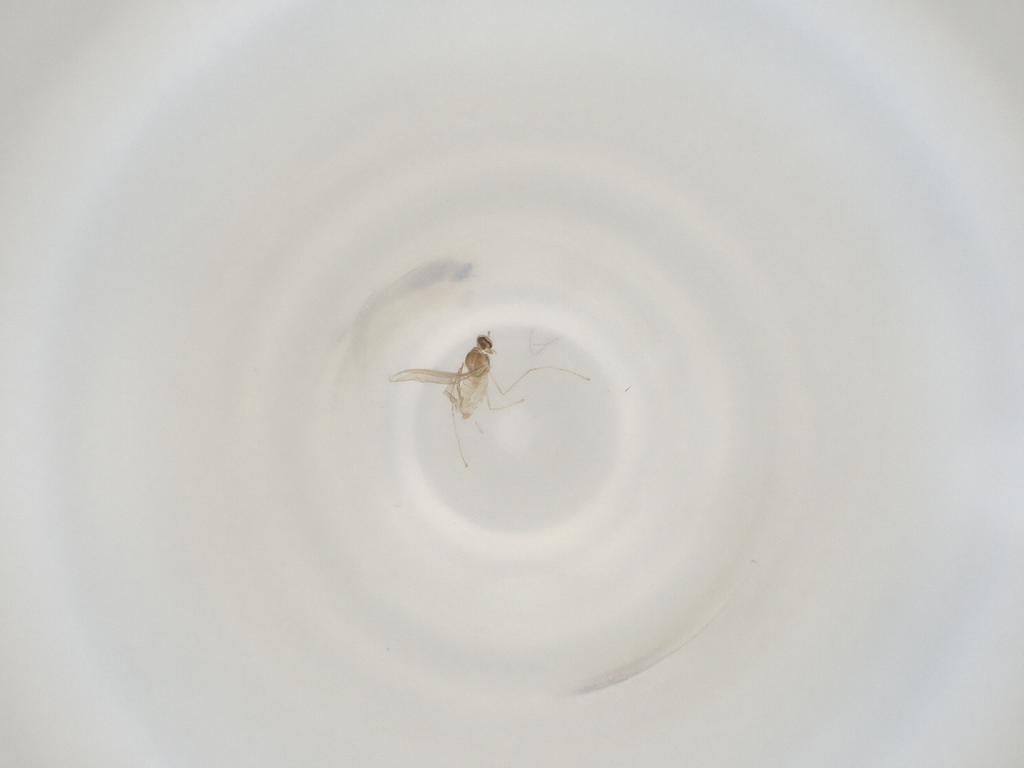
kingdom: Animalia
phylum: Arthropoda
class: Insecta
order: Diptera
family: Cecidomyiidae
